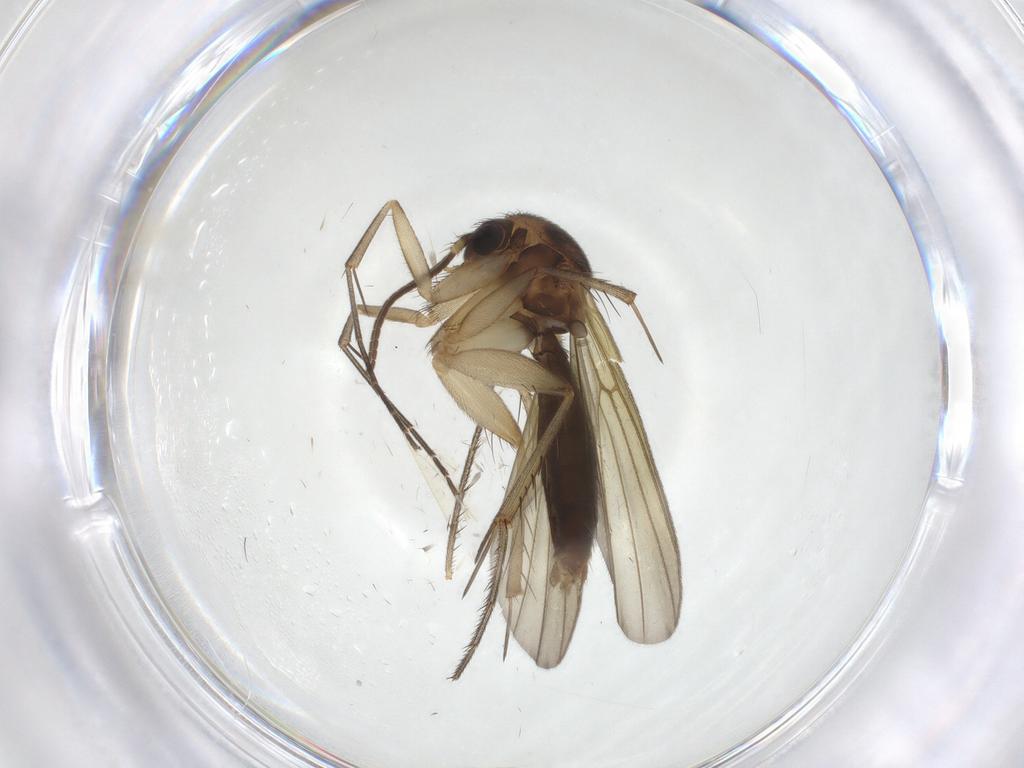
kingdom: Animalia
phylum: Arthropoda
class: Insecta
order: Diptera
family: Mycetophilidae
